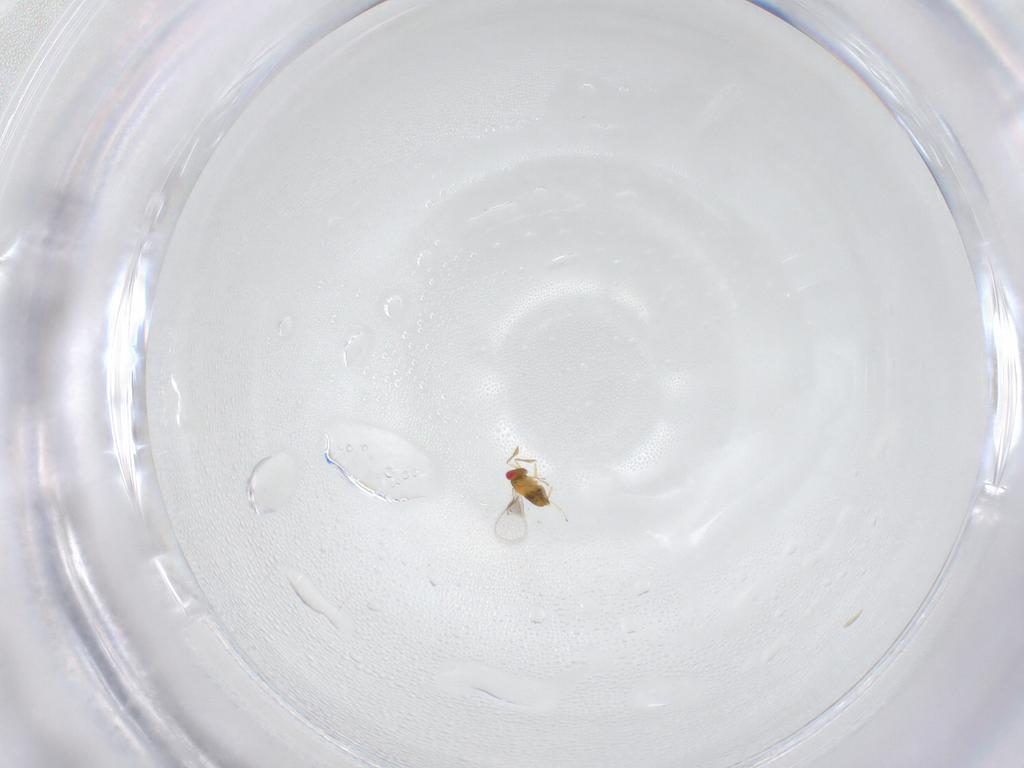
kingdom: Animalia
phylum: Arthropoda
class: Insecta
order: Hymenoptera
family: Trichogrammatidae
